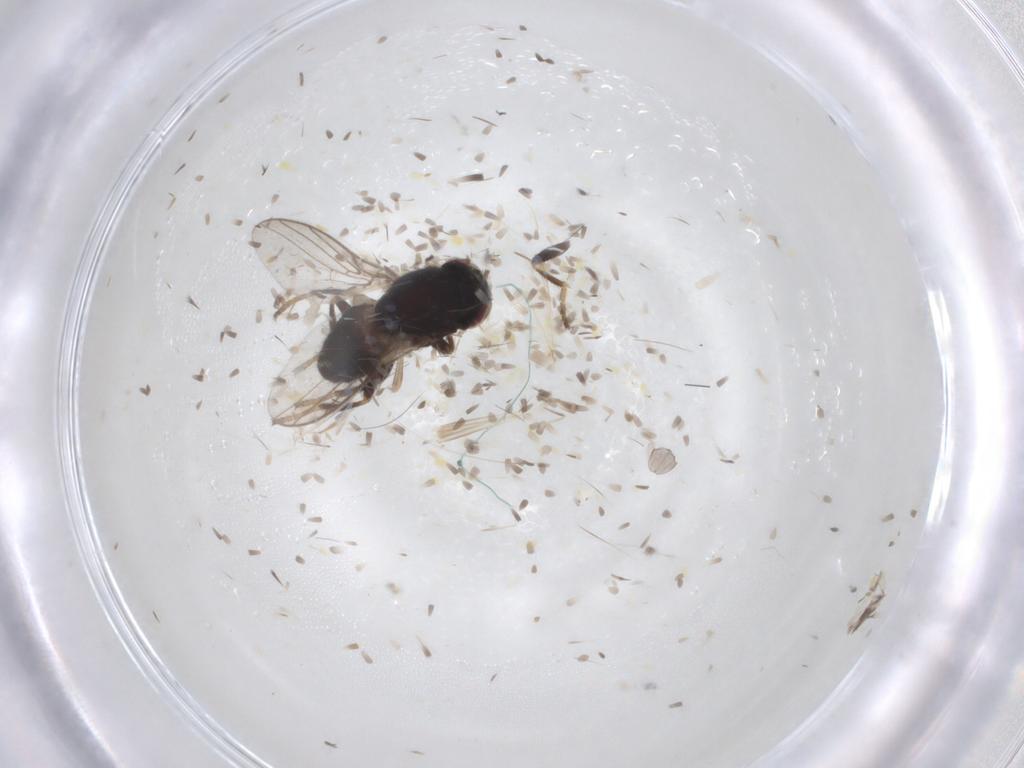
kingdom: Animalia
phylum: Arthropoda
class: Insecta
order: Diptera
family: Chloropidae
